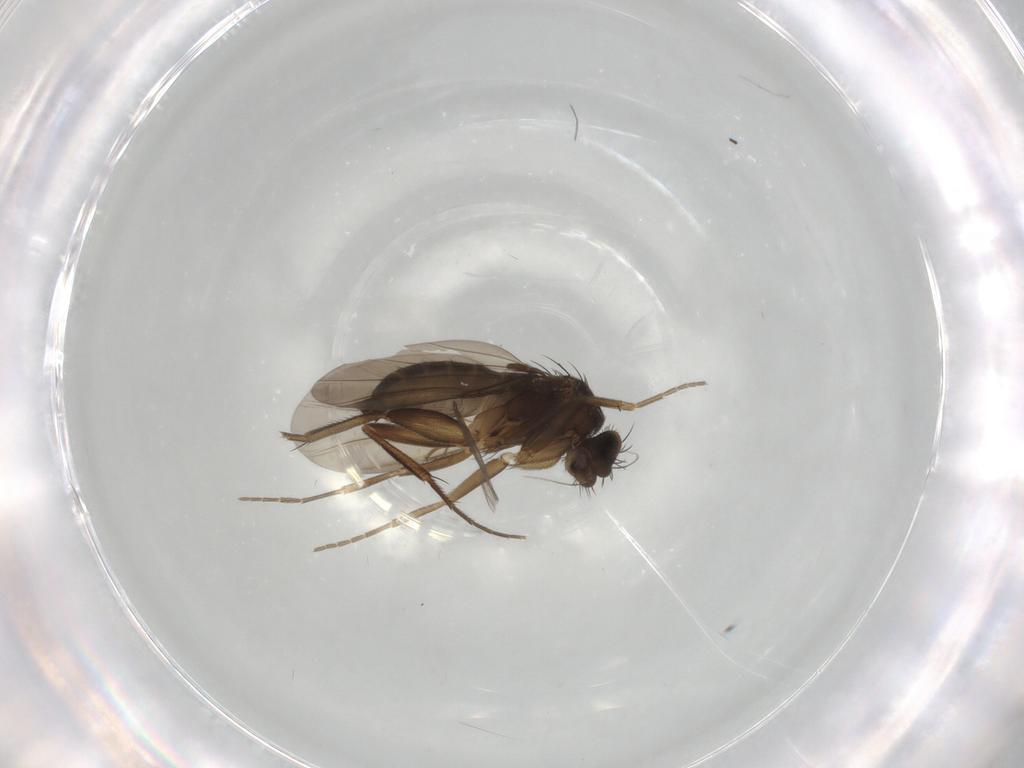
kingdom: Animalia
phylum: Arthropoda
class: Insecta
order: Diptera
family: Phoridae
